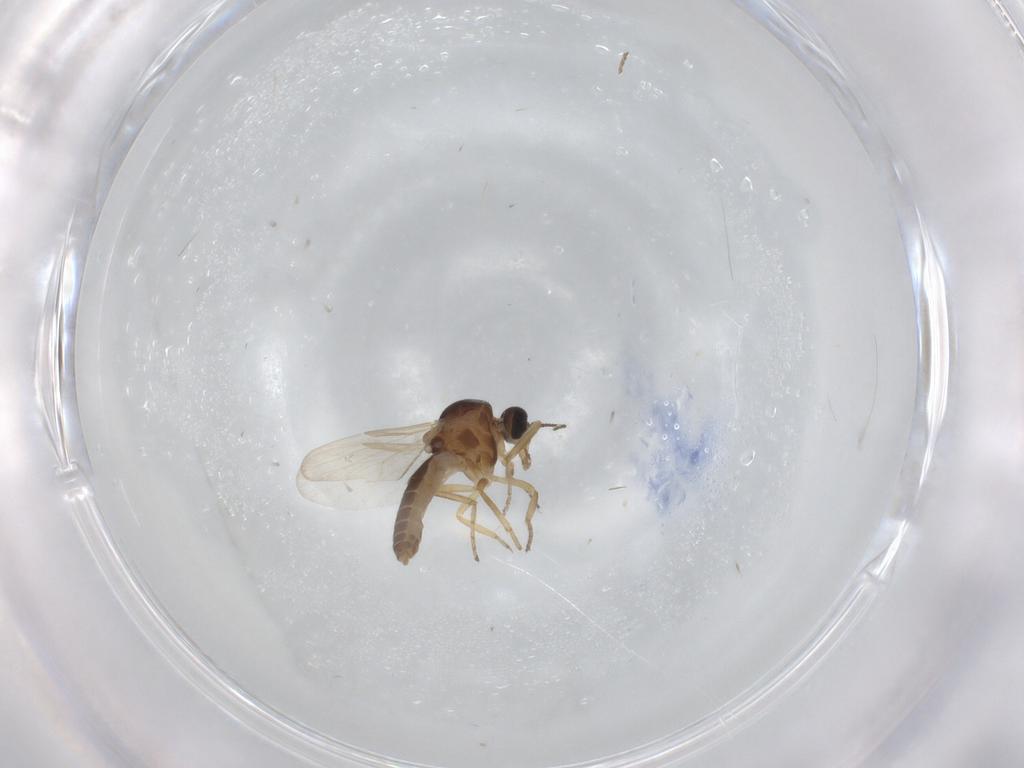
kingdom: Animalia
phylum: Arthropoda
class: Insecta
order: Diptera
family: Ceratopogonidae
